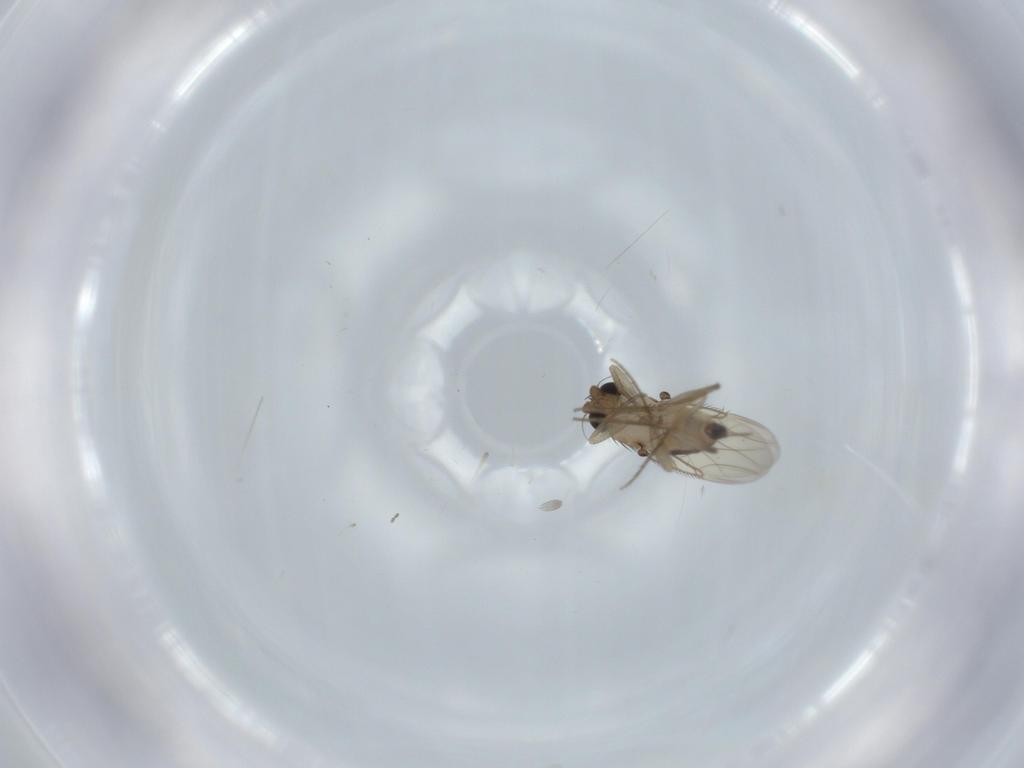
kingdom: Animalia
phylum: Arthropoda
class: Insecta
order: Diptera
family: Phoridae
